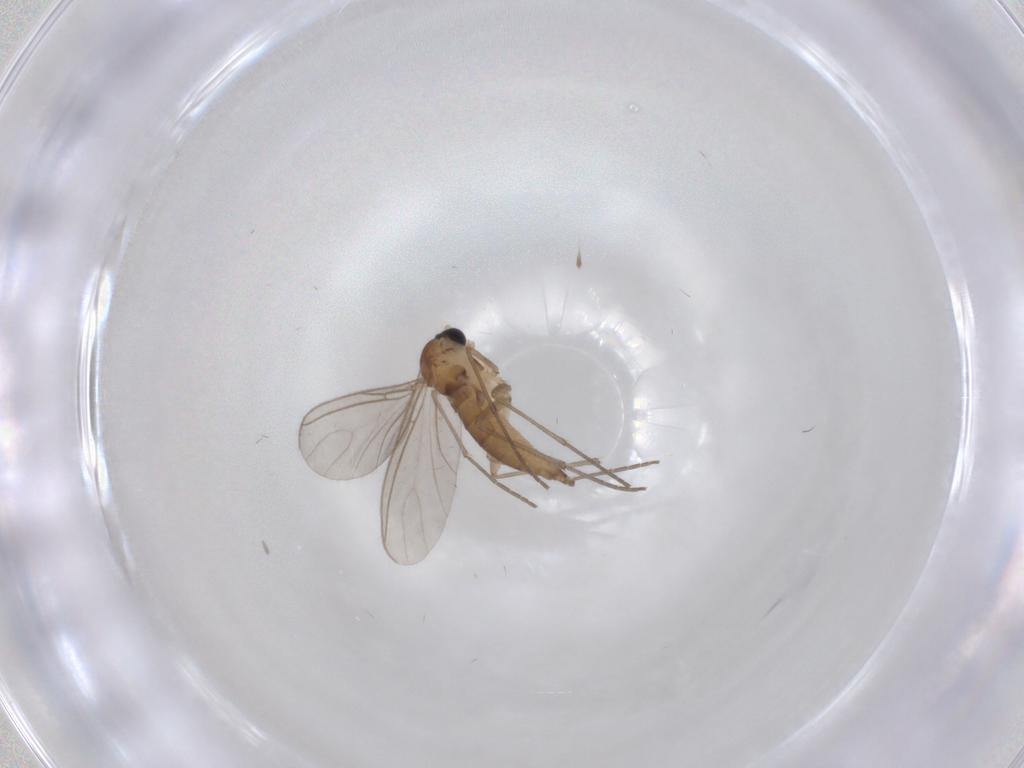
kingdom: Animalia
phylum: Arthropoda
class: Insecta
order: Diptera
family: Sciaridae
